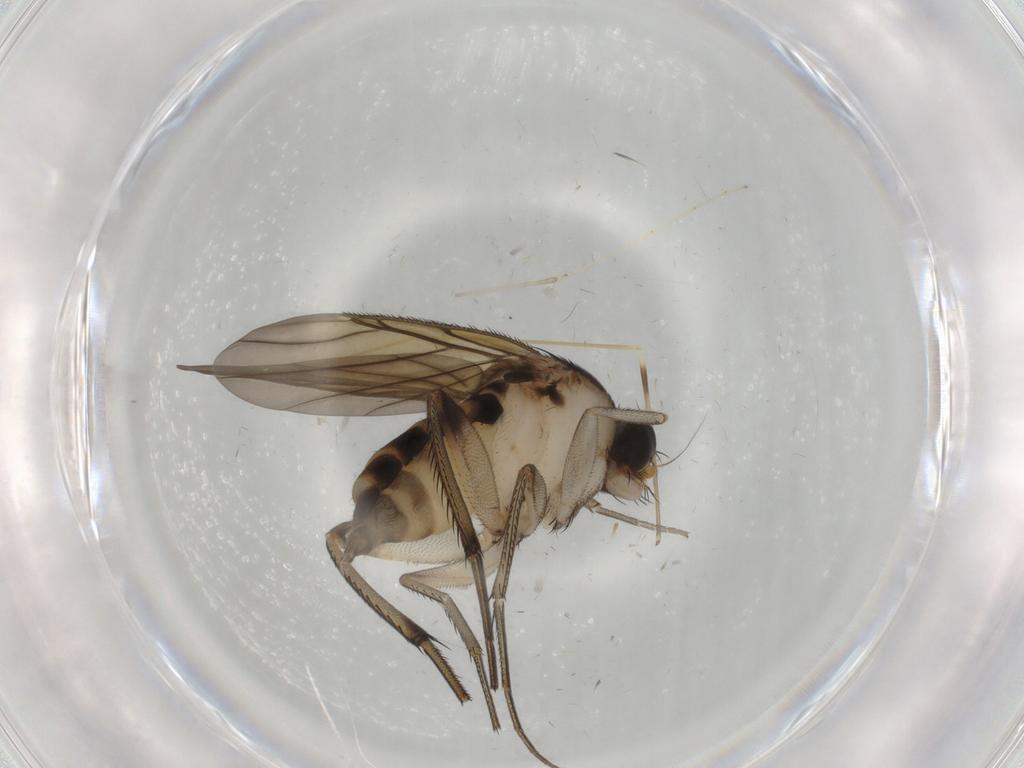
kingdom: Animalia
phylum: Arthropoda
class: Insecta
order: Diptera
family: Phoridae
